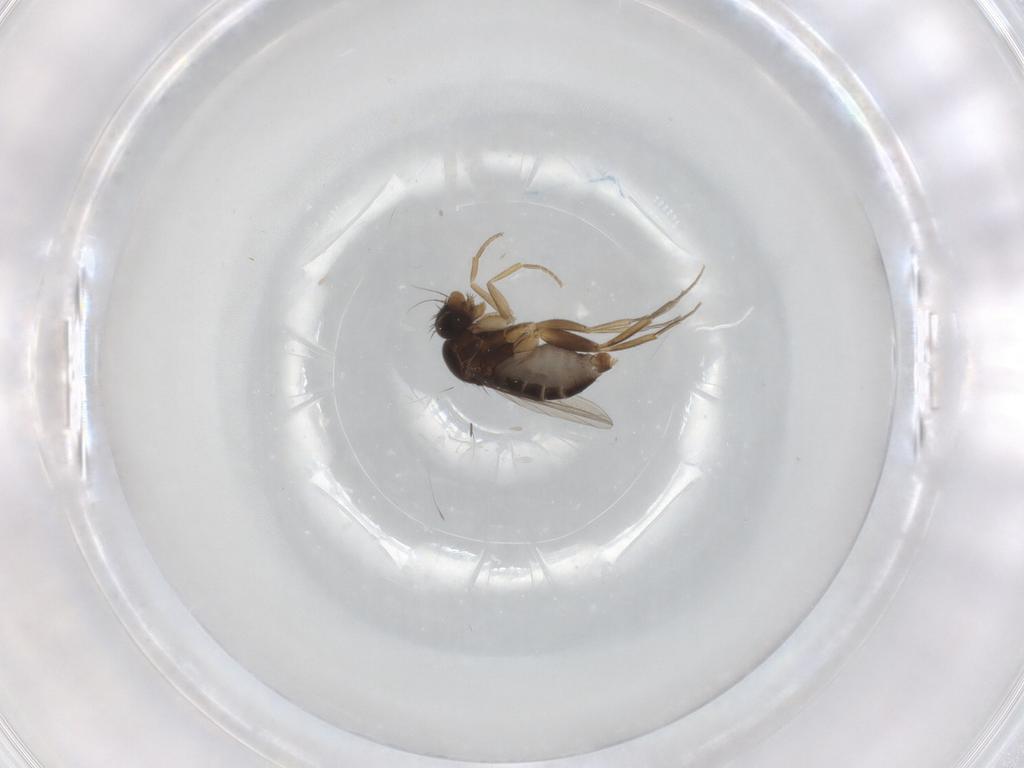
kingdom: Animalia
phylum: Arthropoda
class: Insecta
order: Diptera
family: Phoridae
